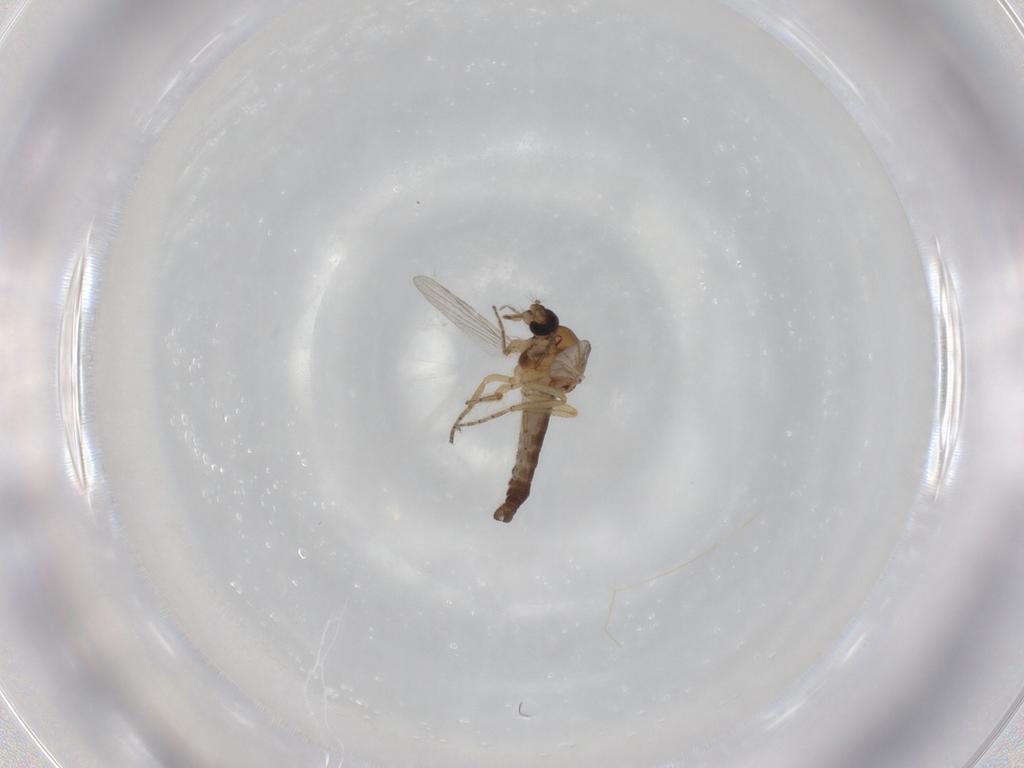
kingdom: Animalia
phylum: Arthropoda
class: Insecta
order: Diptera
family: Ceratopogonidae
